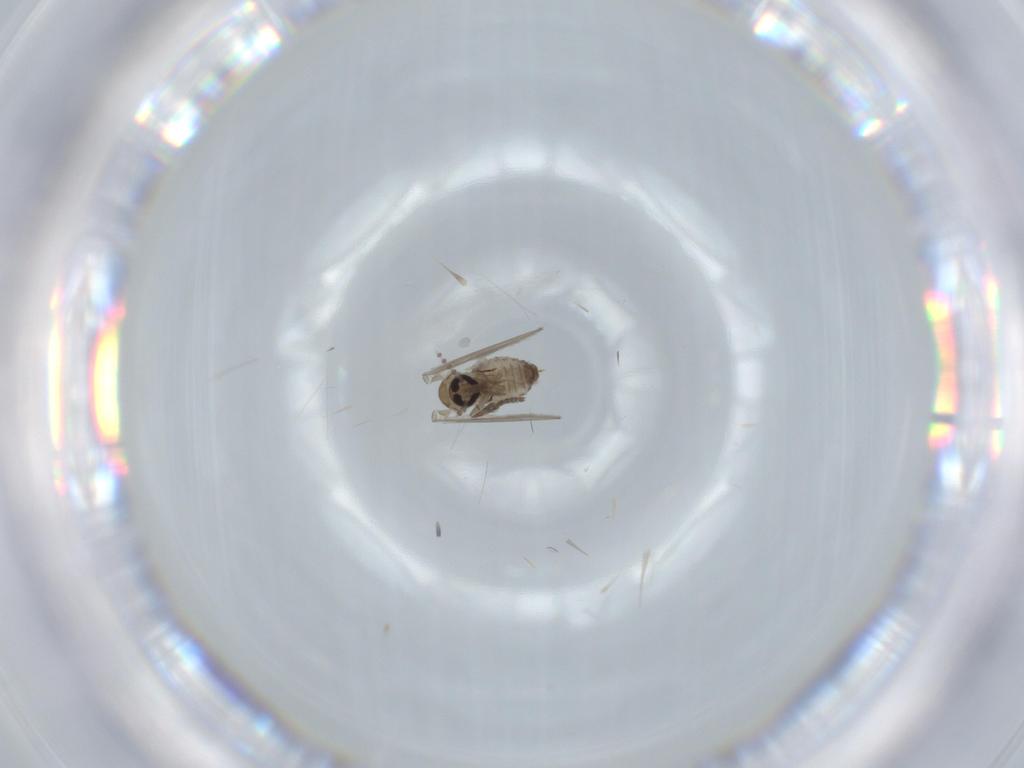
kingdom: Animalia
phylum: Arthropoda
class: Insecta
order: Diptera
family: Psychodidae
